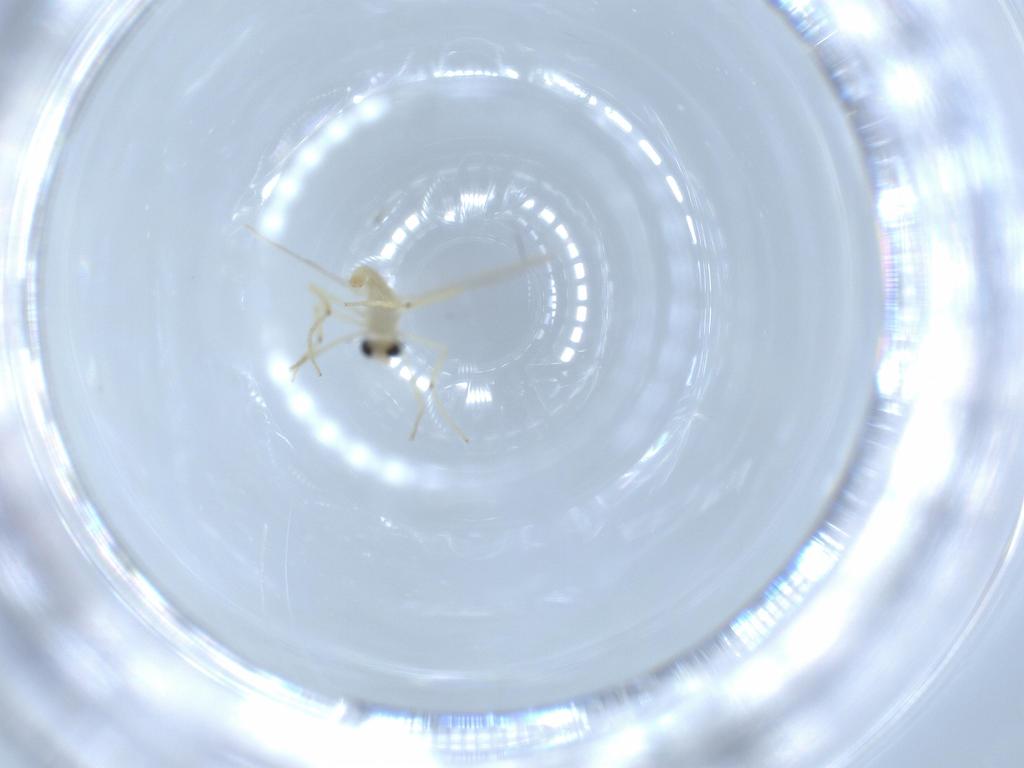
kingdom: Animalia
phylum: Arthropoda
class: Insecta
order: Diptera
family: Chironomidae
